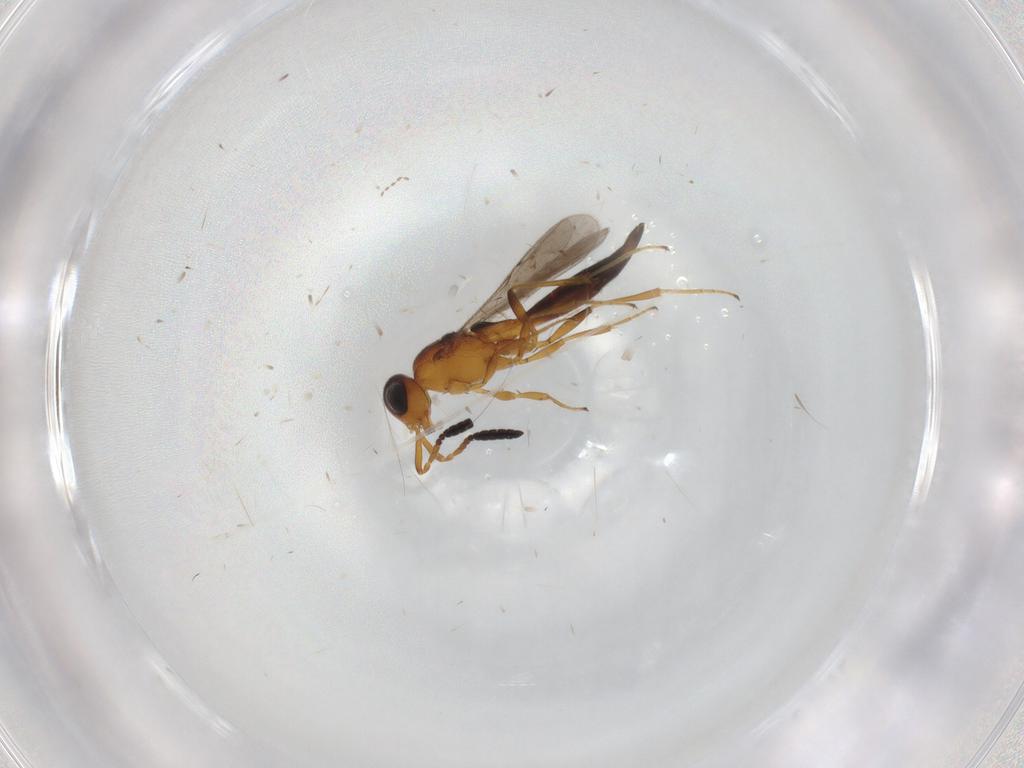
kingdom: Animalia
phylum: Arthropoda
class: Insecta
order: Hymenoptera
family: Scelionidae
